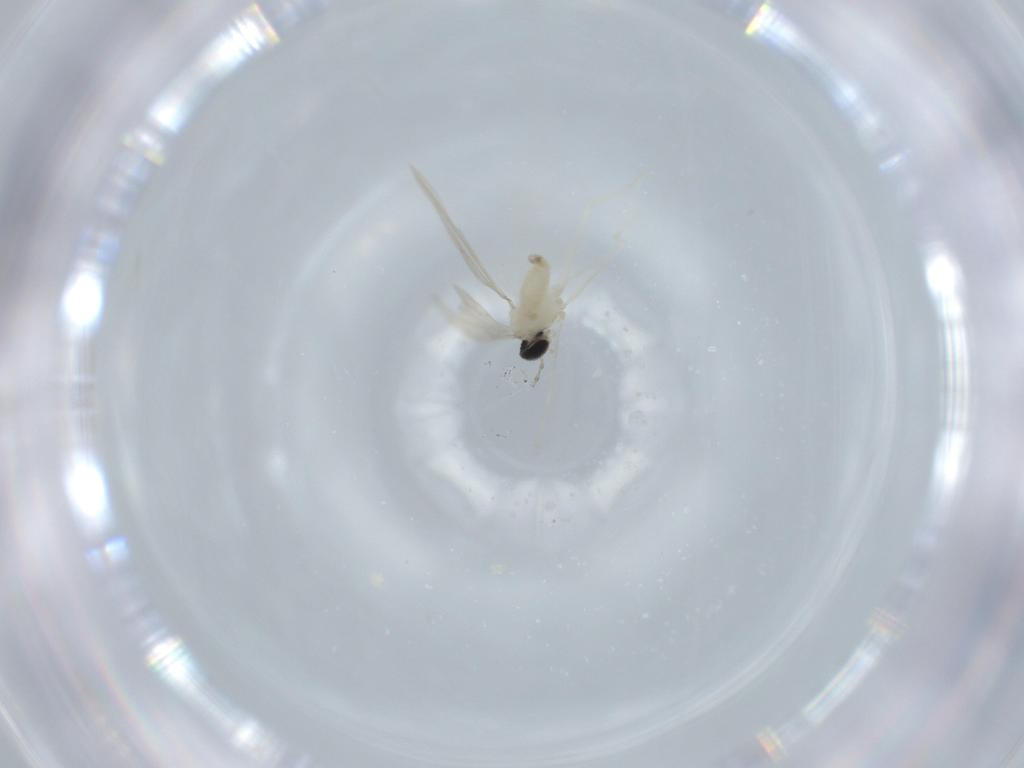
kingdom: Animalia
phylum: Arthropoda
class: Insecta
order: Diptera
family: Cecidomyiidae
